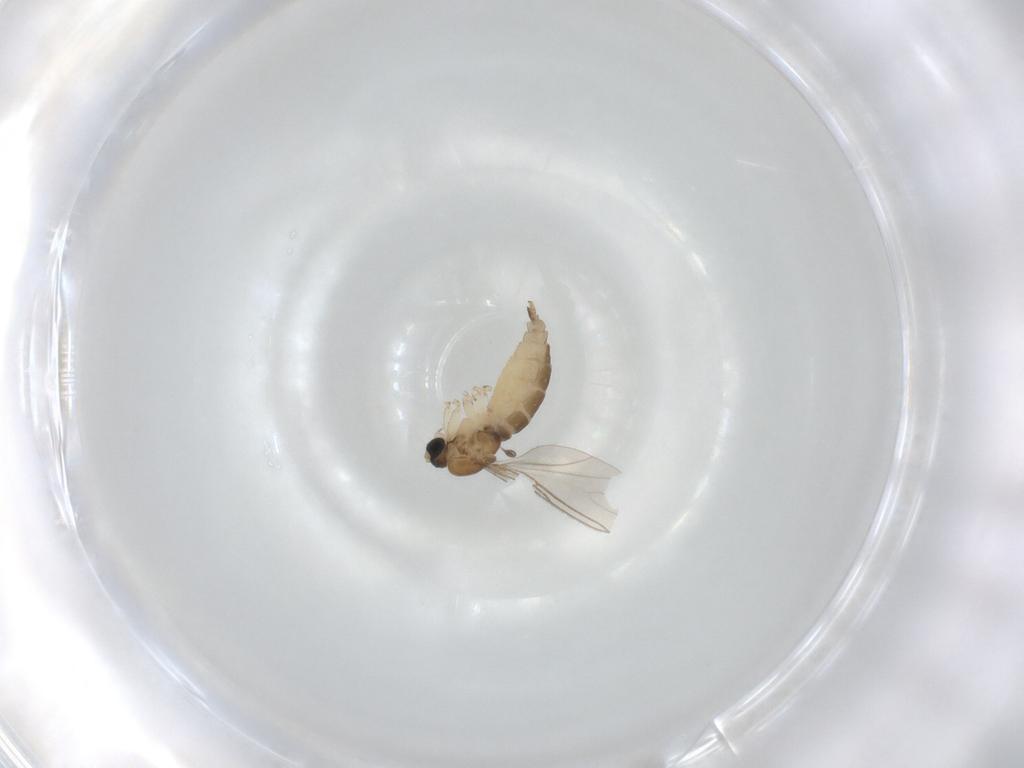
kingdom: Animalia
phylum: Arthropoda
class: Insecta
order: Diptera
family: Sciaridae
